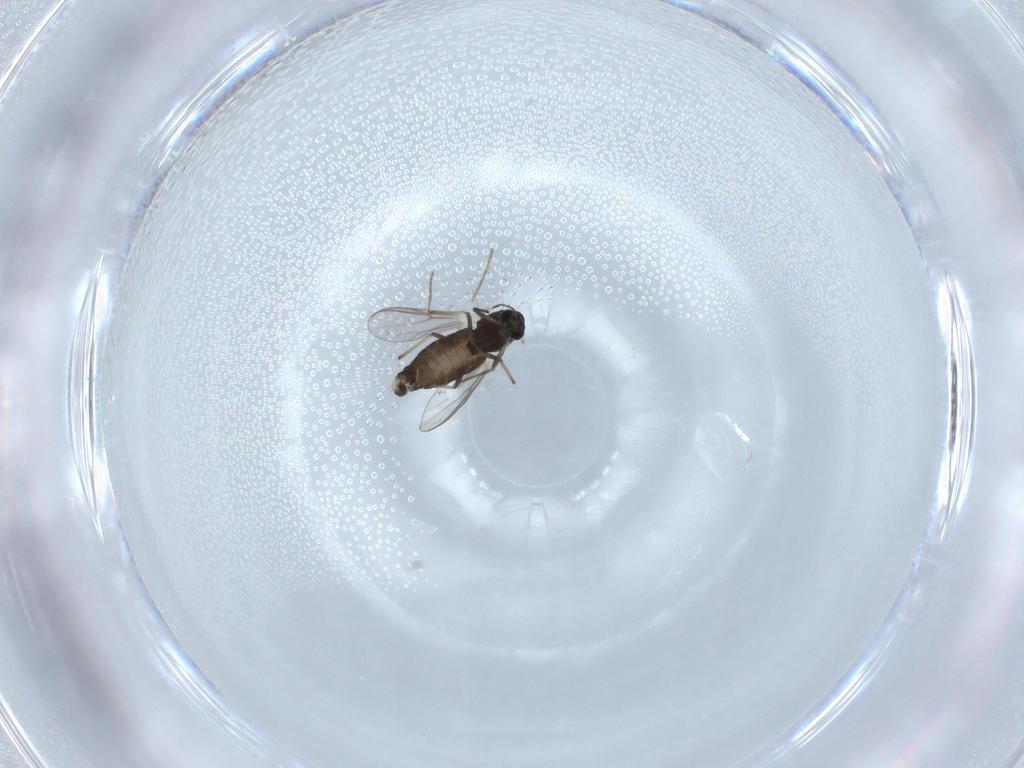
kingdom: Animalia
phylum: Arthropoda
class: Insecta
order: Diptera
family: Chironomidae
